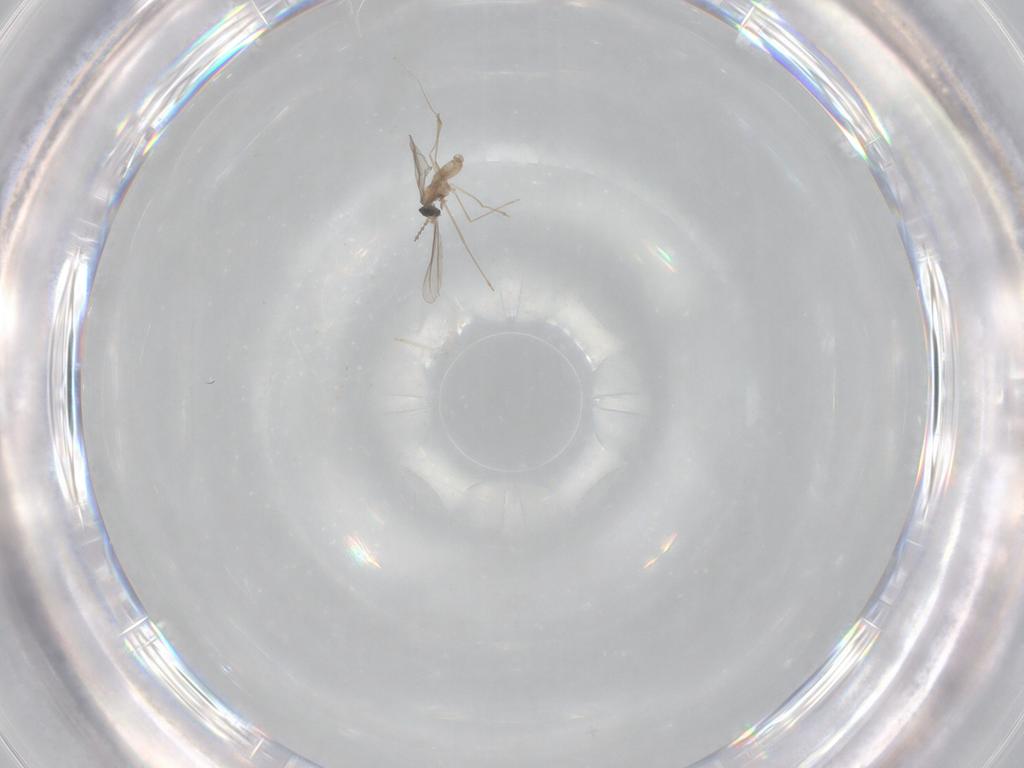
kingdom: Animalia
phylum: Arthropoda
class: Insecta
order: Diptera
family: Cecidomyiidae
